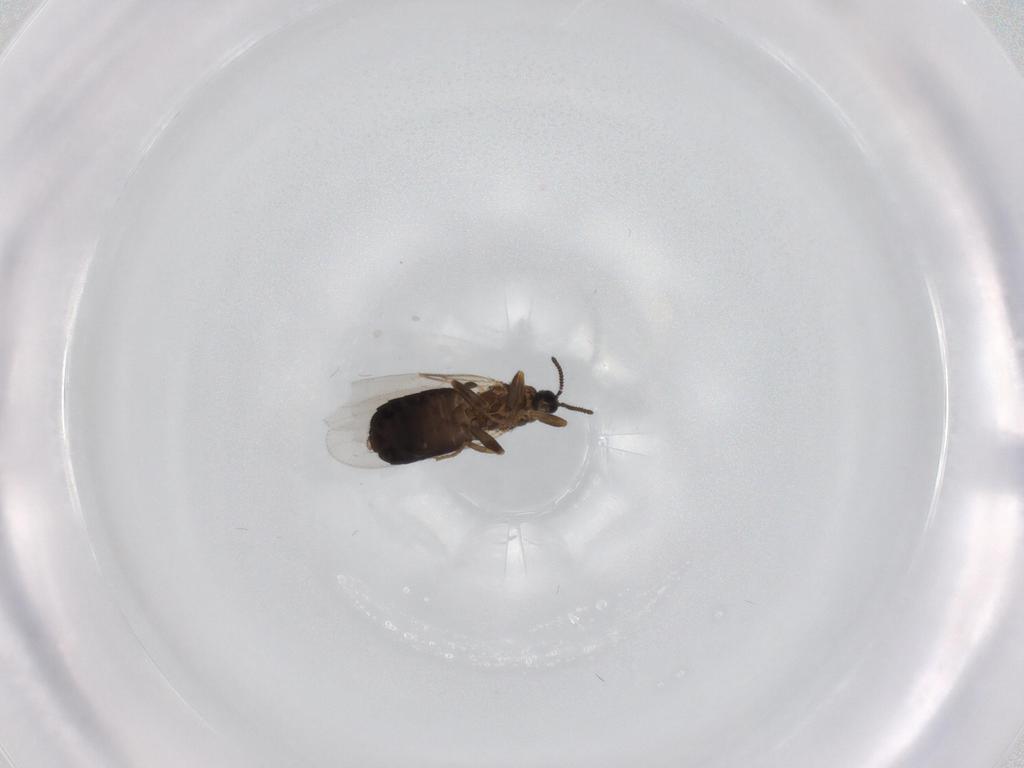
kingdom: Animalia
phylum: Arthropoda
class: Insecta
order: Diptera
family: Scatopsidae
